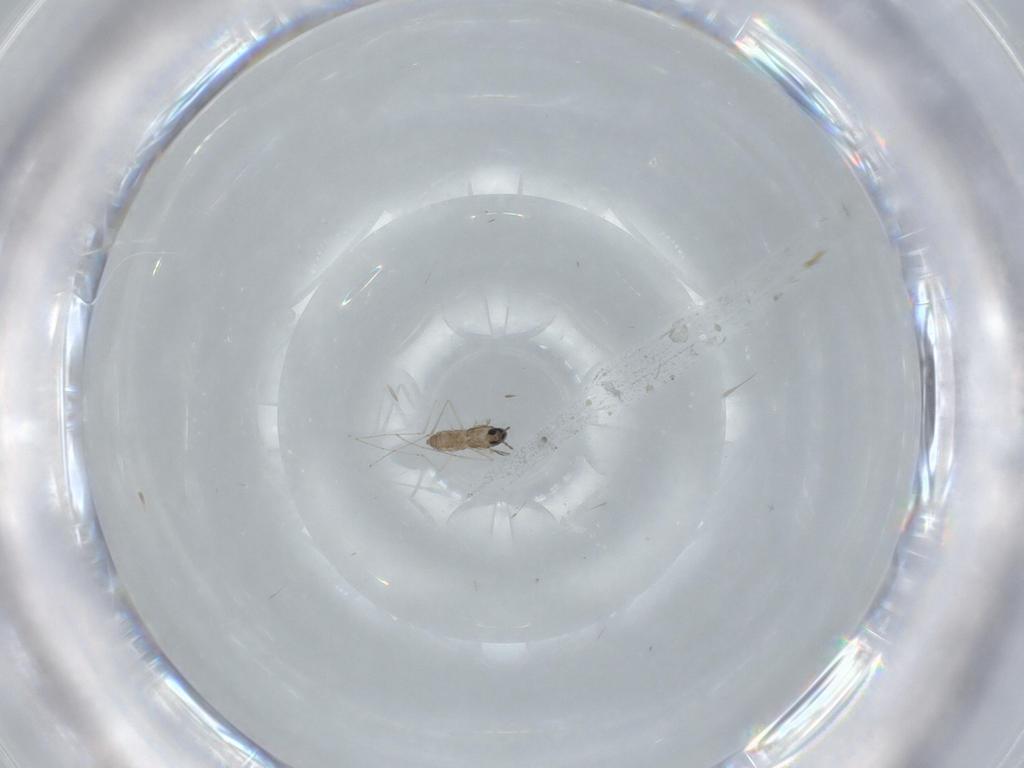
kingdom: Animalia
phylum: Arthropoda
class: Insecta
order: Diptera
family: Cecidomyiidae
